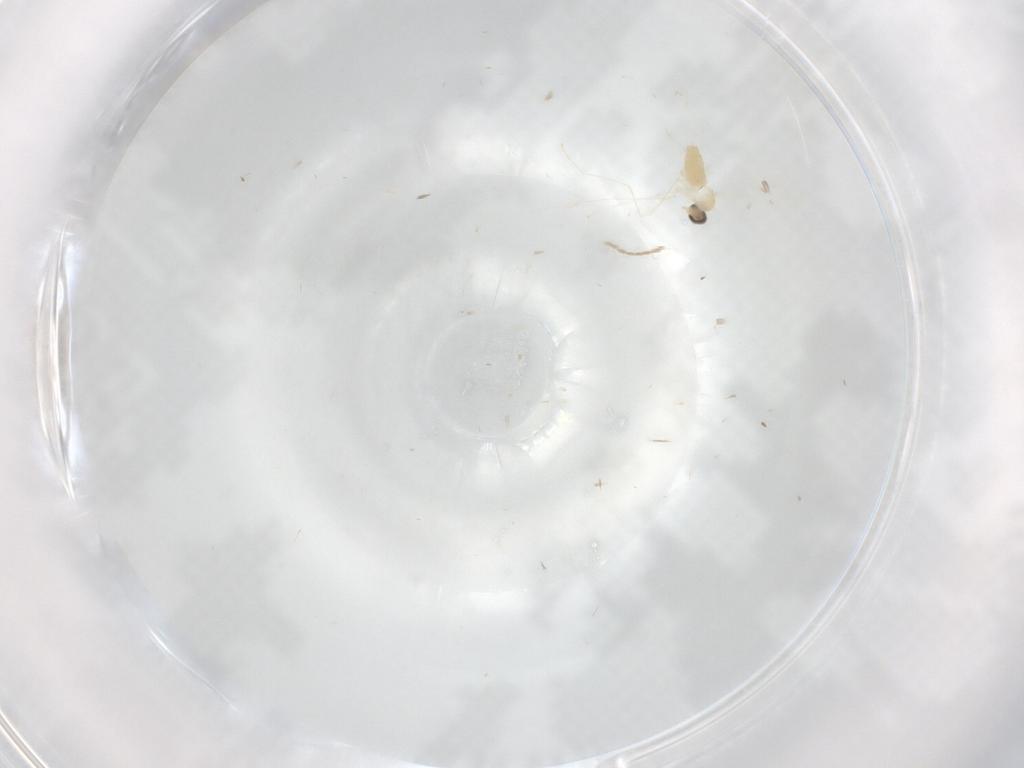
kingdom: Animalia
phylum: Arthropoda
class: Insecta
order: Diptera
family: Cecidomyiidae
